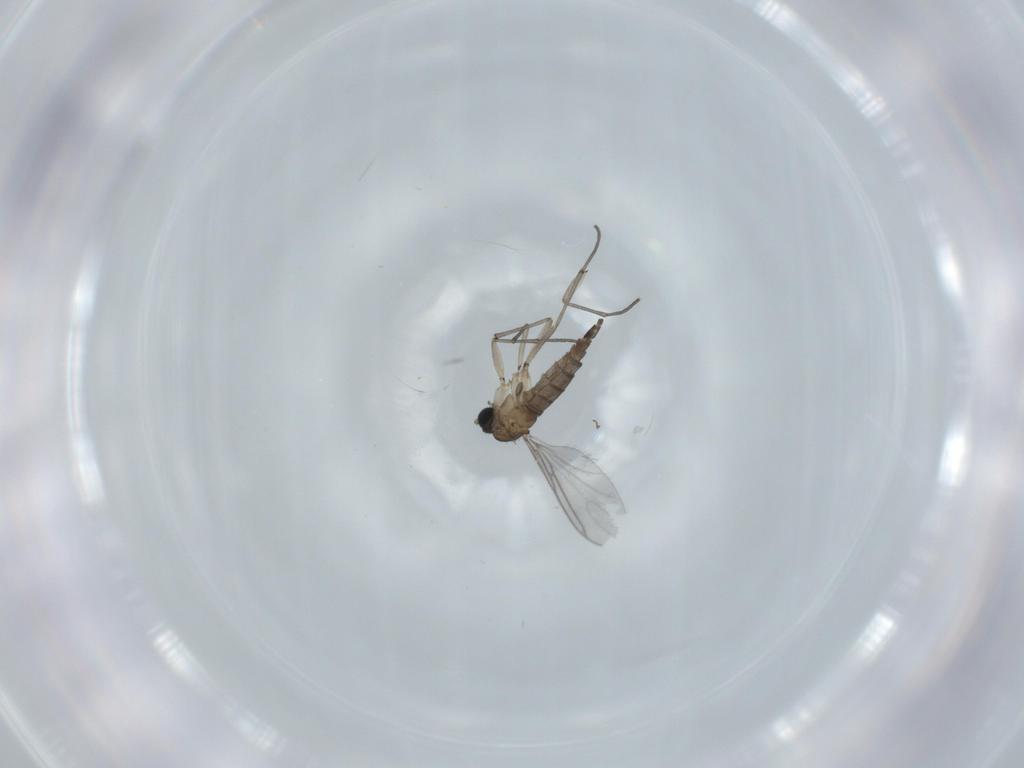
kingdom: Animalia
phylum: Arthropoda
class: Insecta
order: Diptera
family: Sciaridae
